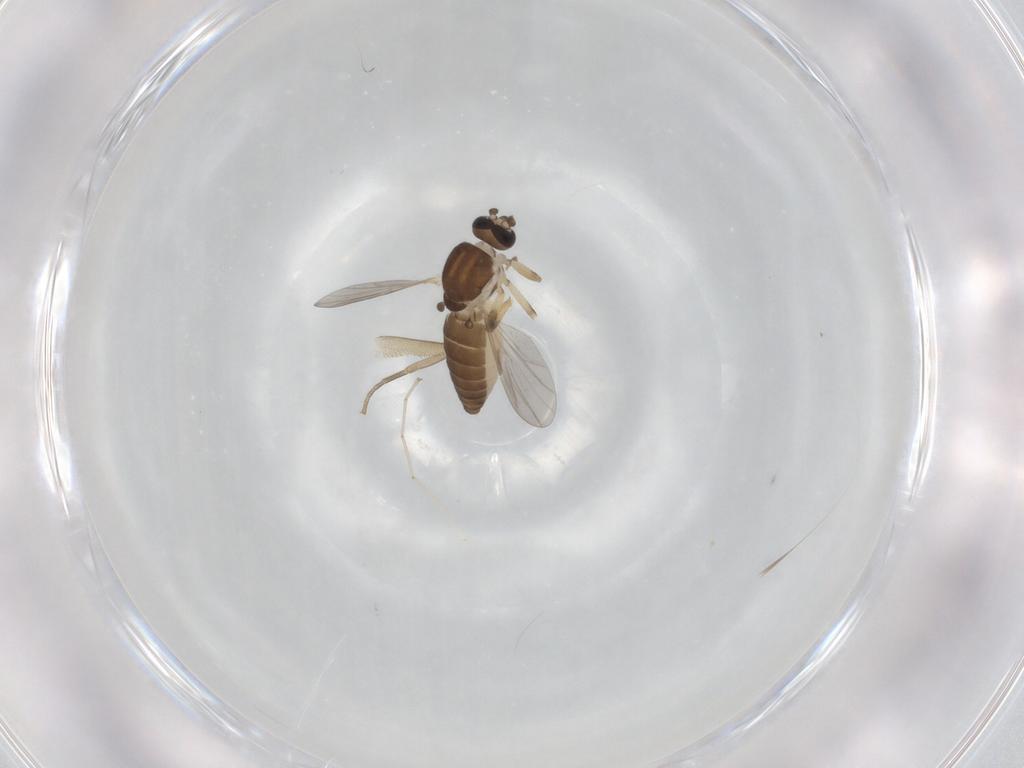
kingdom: Animalia
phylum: Arthropoda
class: Insecta
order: Diptera
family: Ceratopogonidae
